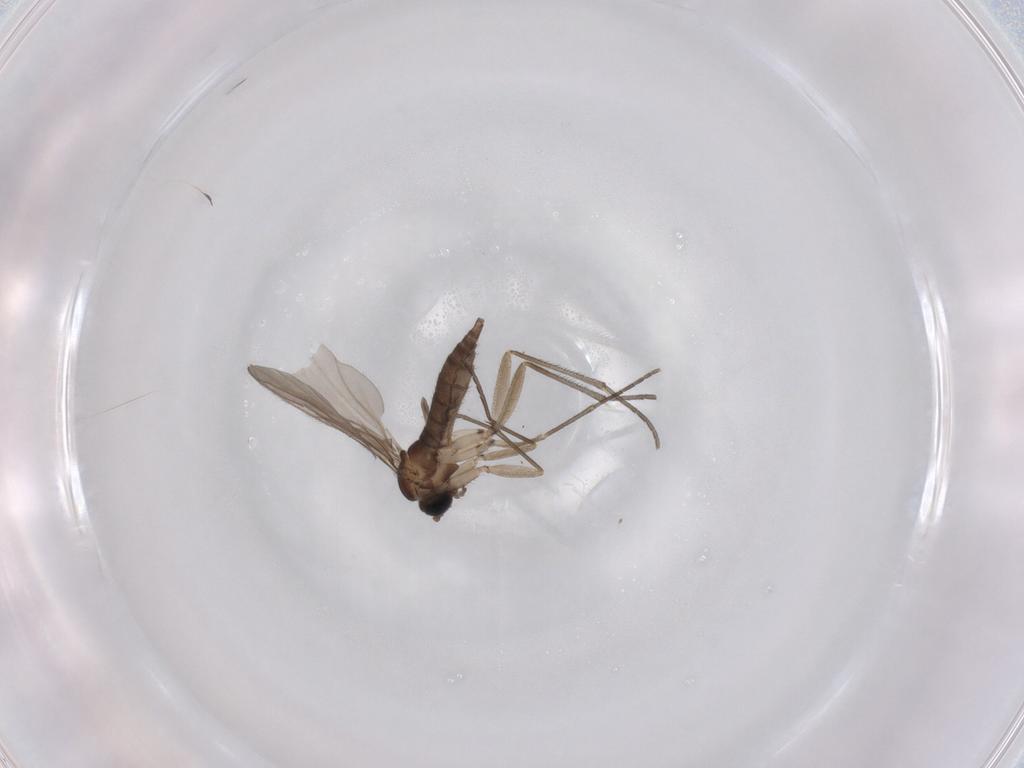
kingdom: Animalia
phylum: Arthropoda
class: Insecta
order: Diptera
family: Sciaridae
